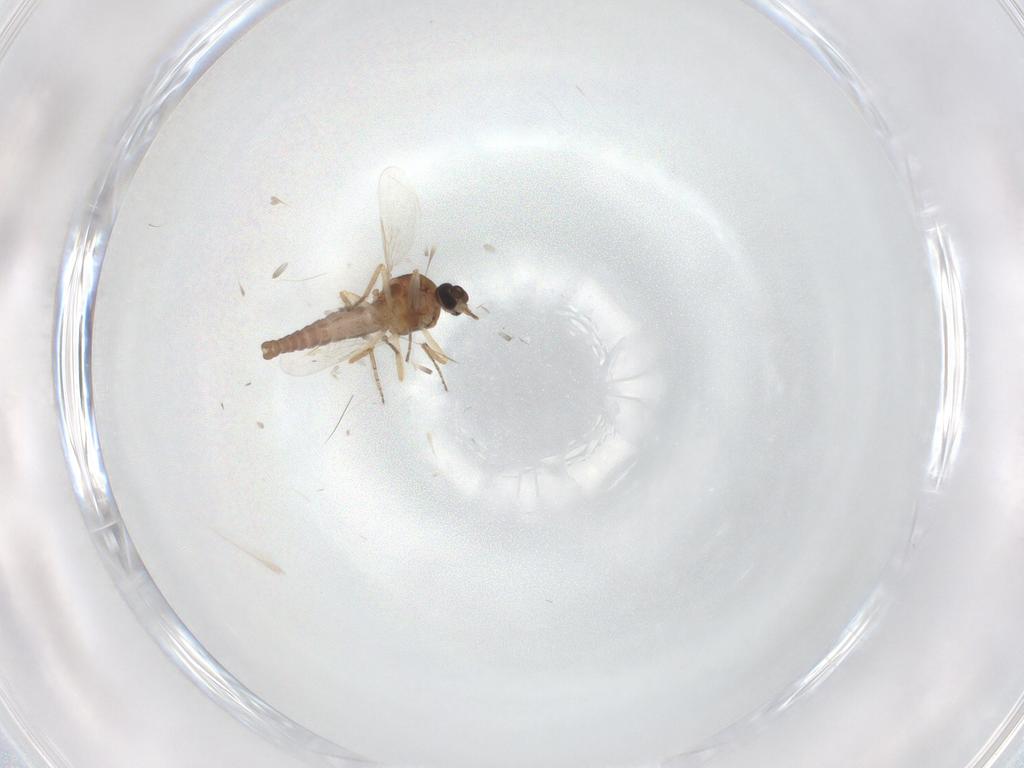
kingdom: Animalia
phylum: Arthropoda
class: Insecta
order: Diptera
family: Ceratopogonidae
